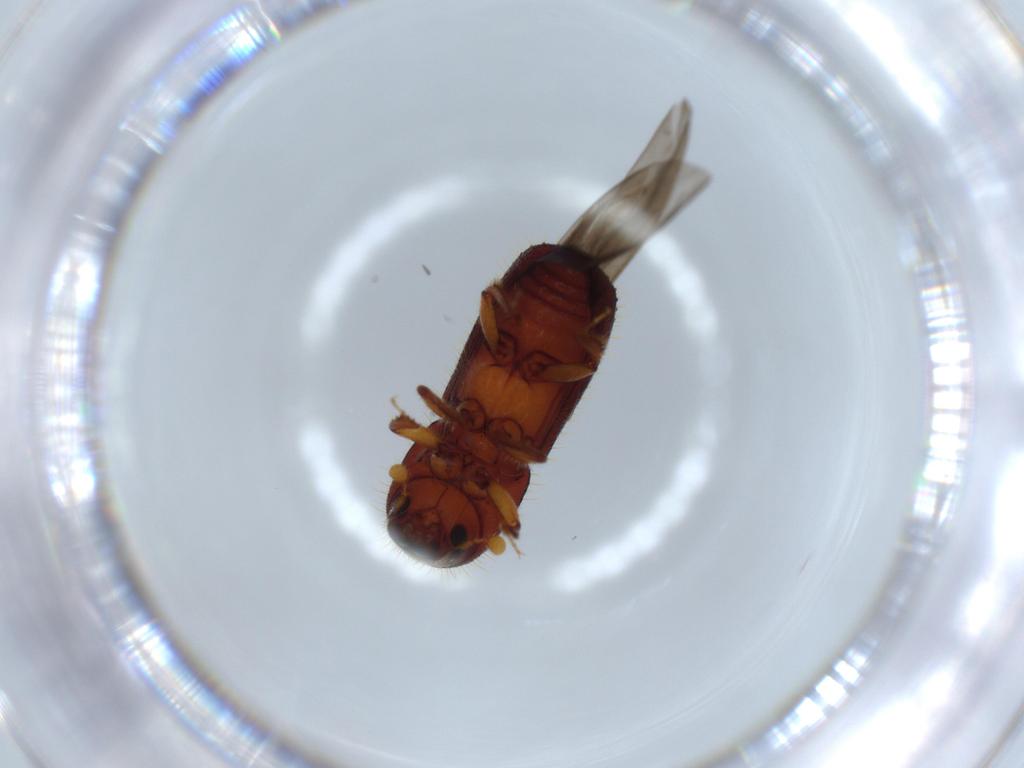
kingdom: Animalia
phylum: Arthropoda
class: Insecta
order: Coleoptera
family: Curculionidae
